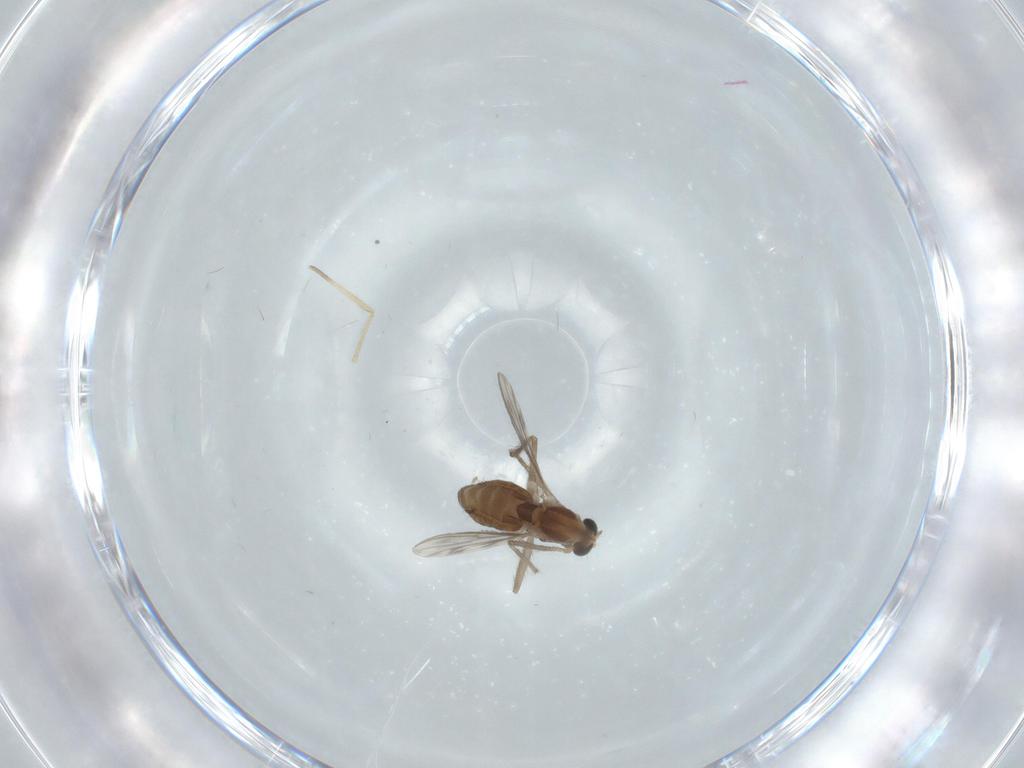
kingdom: Animalia
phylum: Arthropoda
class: Insecta
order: Diptera
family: Chironomidae
